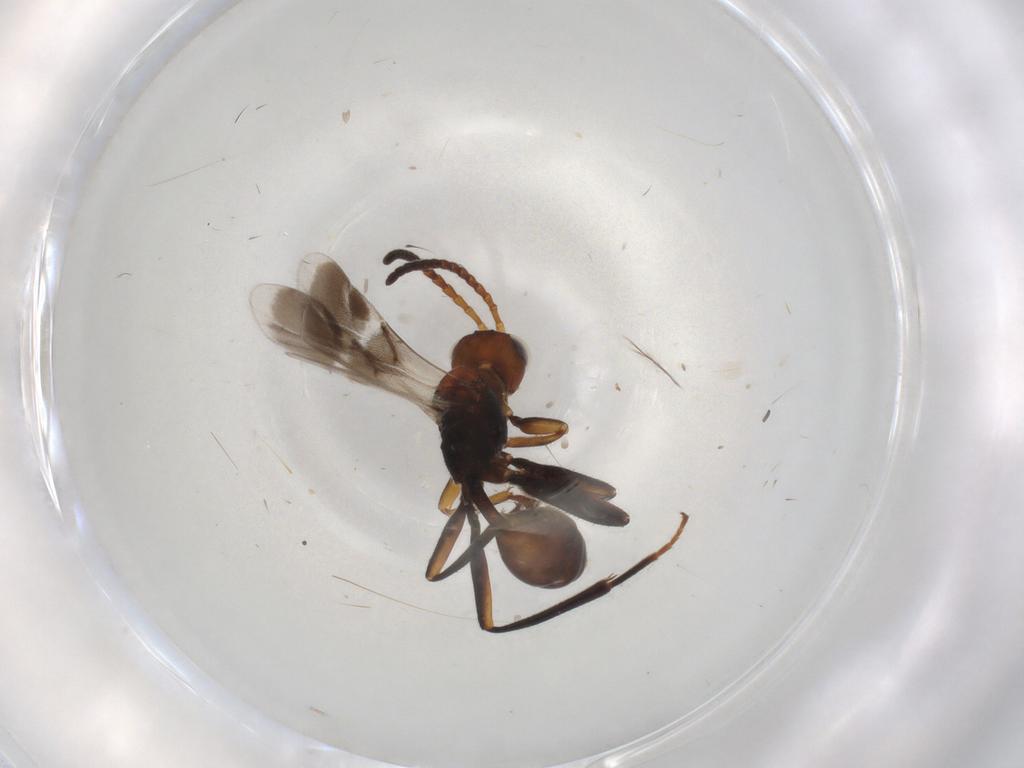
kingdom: Animalia
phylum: Arthropoda
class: Insecta
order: Hymenoptera
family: Braconidae
